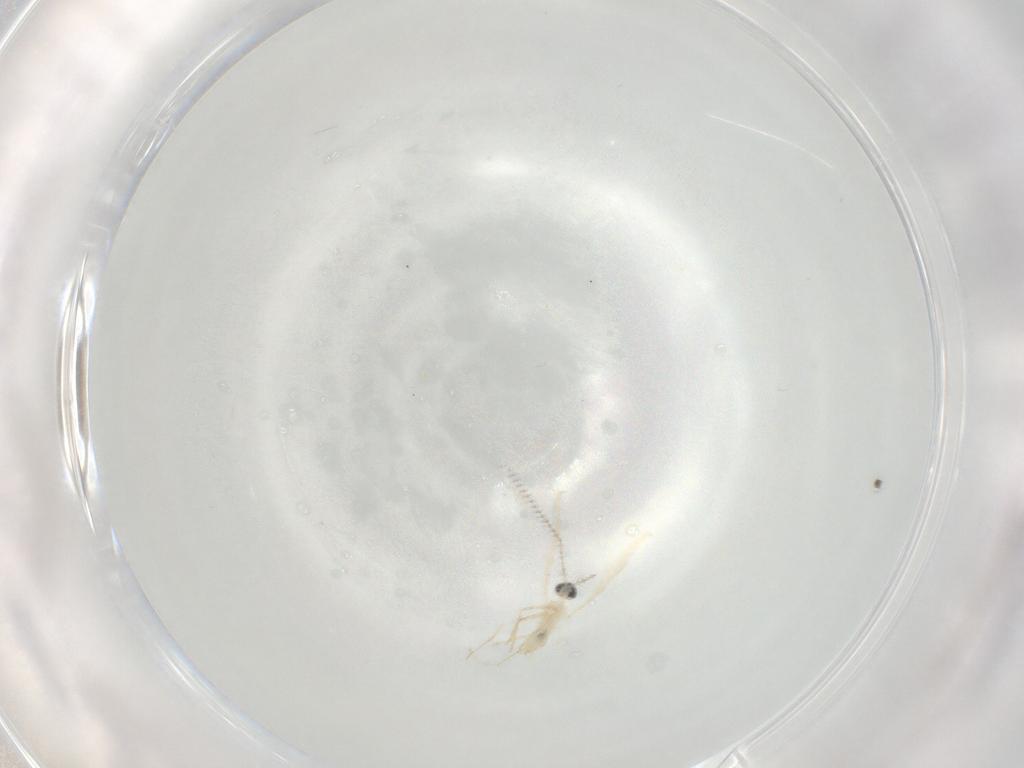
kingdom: Animalia
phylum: Arthropoda
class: Insecta
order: Diptera
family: Cecidomyiidae
